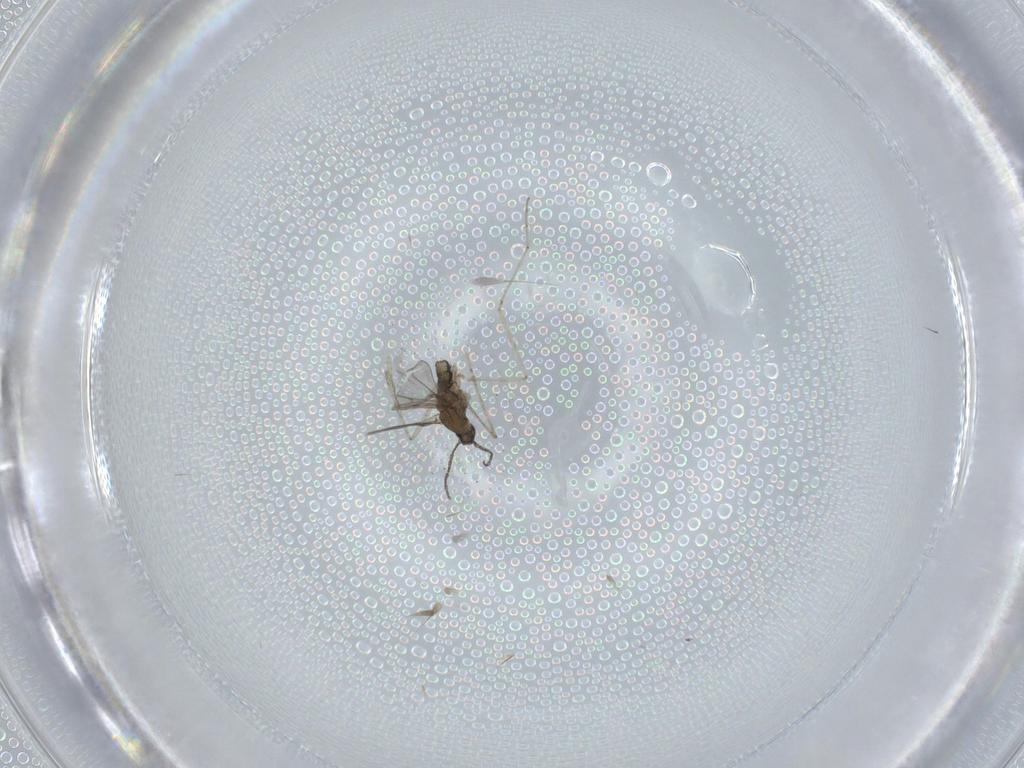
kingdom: Animalia
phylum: Arthropoda
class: Insecta
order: Diptera
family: Cecidomyiidae
